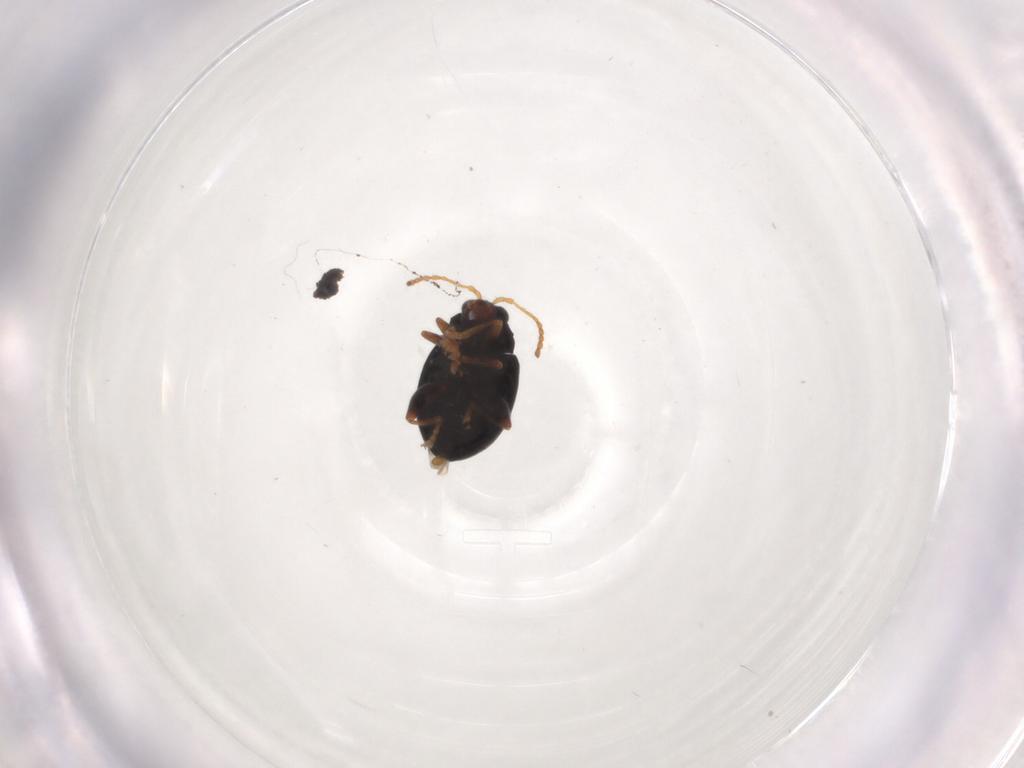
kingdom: Animalia
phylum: Arthropoda
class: Insecta
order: Coleoptera
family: Chrysomelidae
